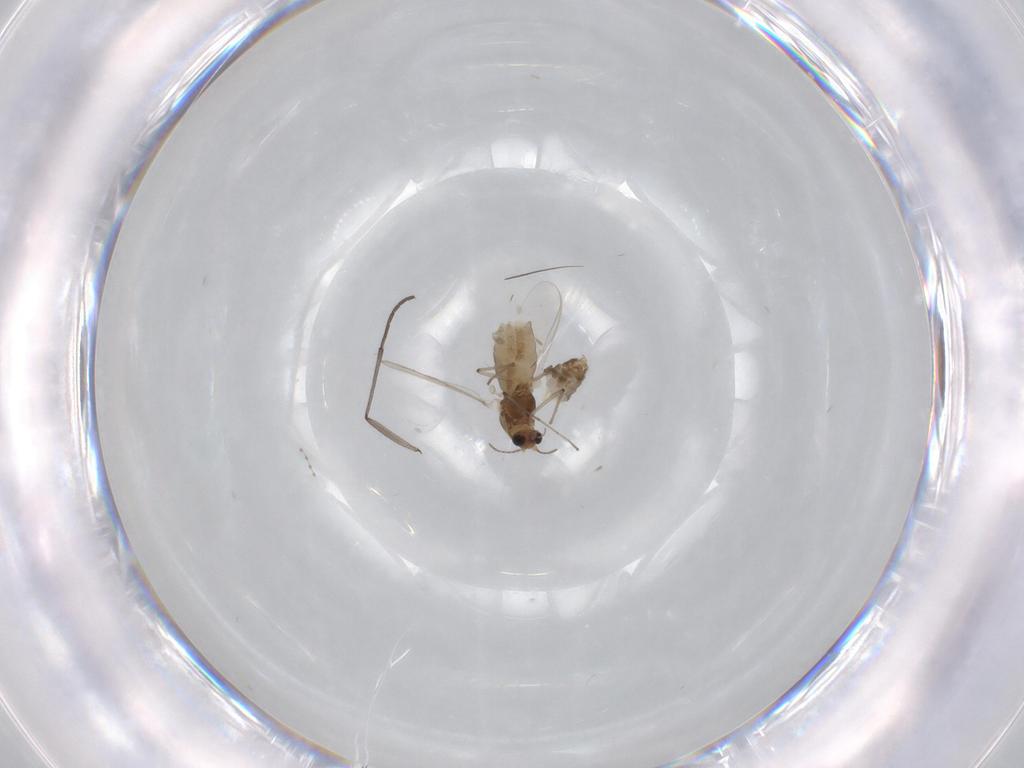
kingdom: Animalia
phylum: Arthropoda
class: Insecta
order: Diptera
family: Chironomidae
